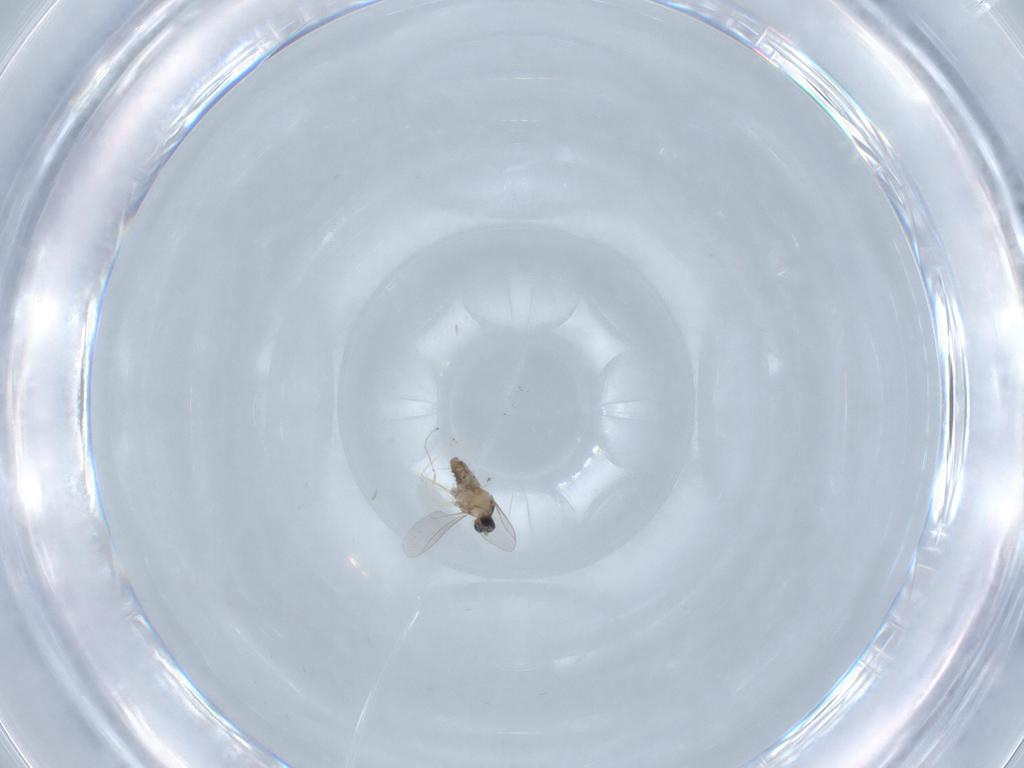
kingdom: Animalia
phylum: Arthropoda
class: Insecta
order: Diptera
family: Cecidomyiidae
